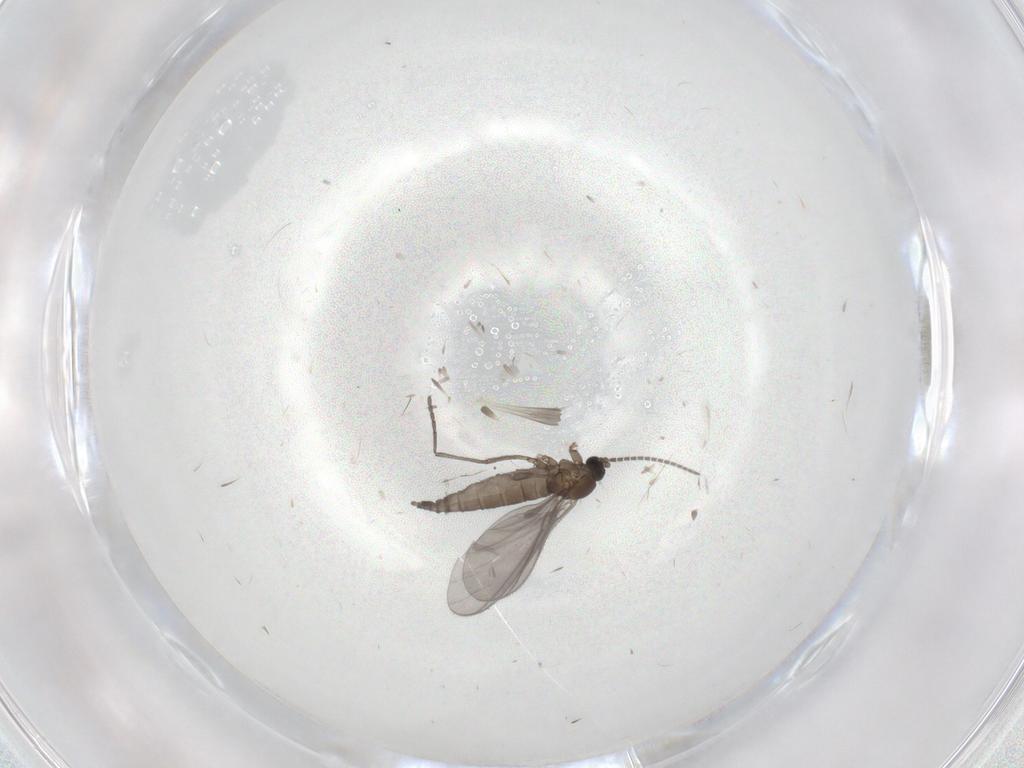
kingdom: Animalia
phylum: Arthropoda
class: Insecta
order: Diptera
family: Sciaridae
